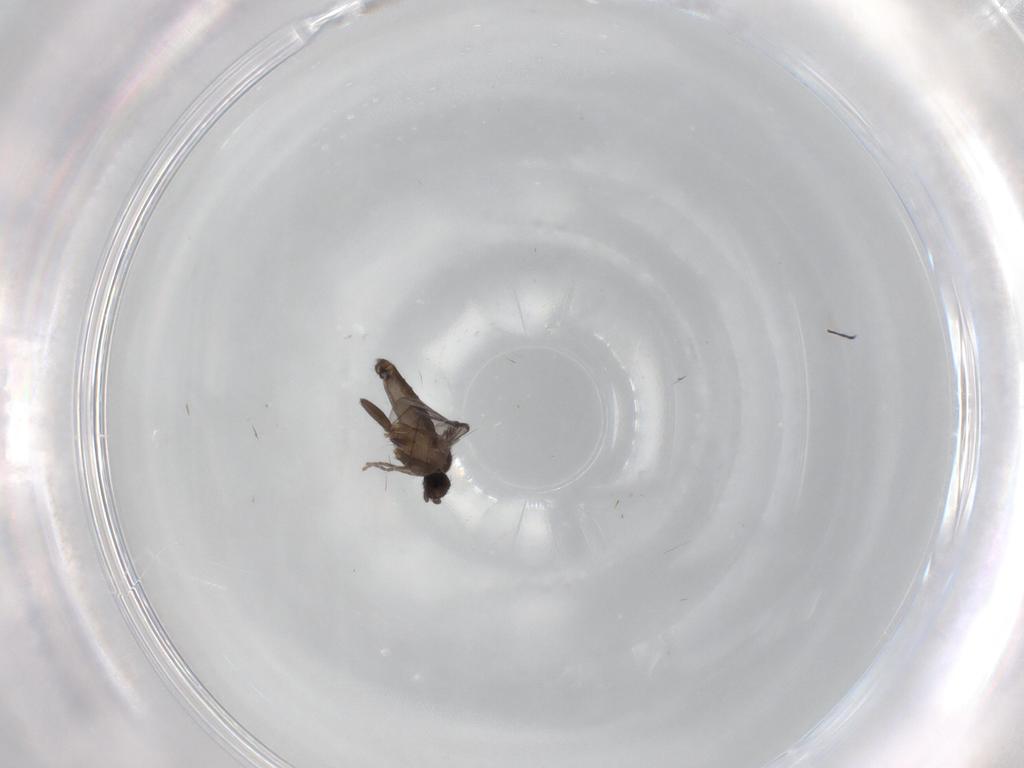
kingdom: Animalia
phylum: Arthropoda
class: Insecta
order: Diptera
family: Phoridae
